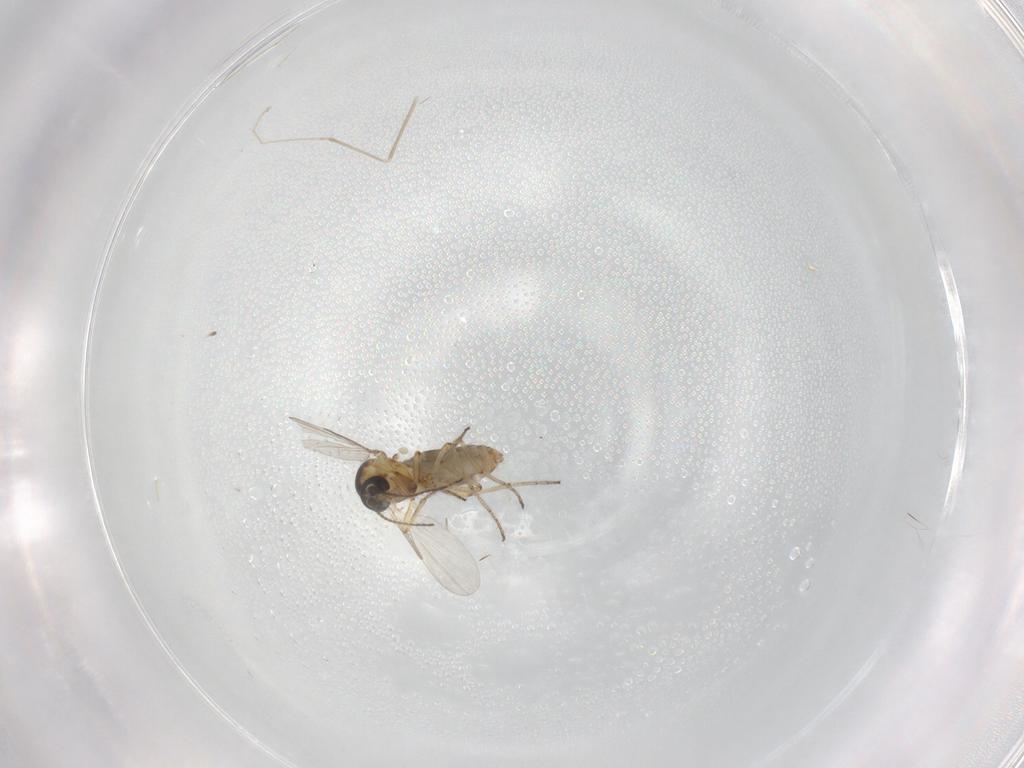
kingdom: Animalia
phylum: Arthropoda
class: Insecta
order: Diptera
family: Cecidomyiidae
